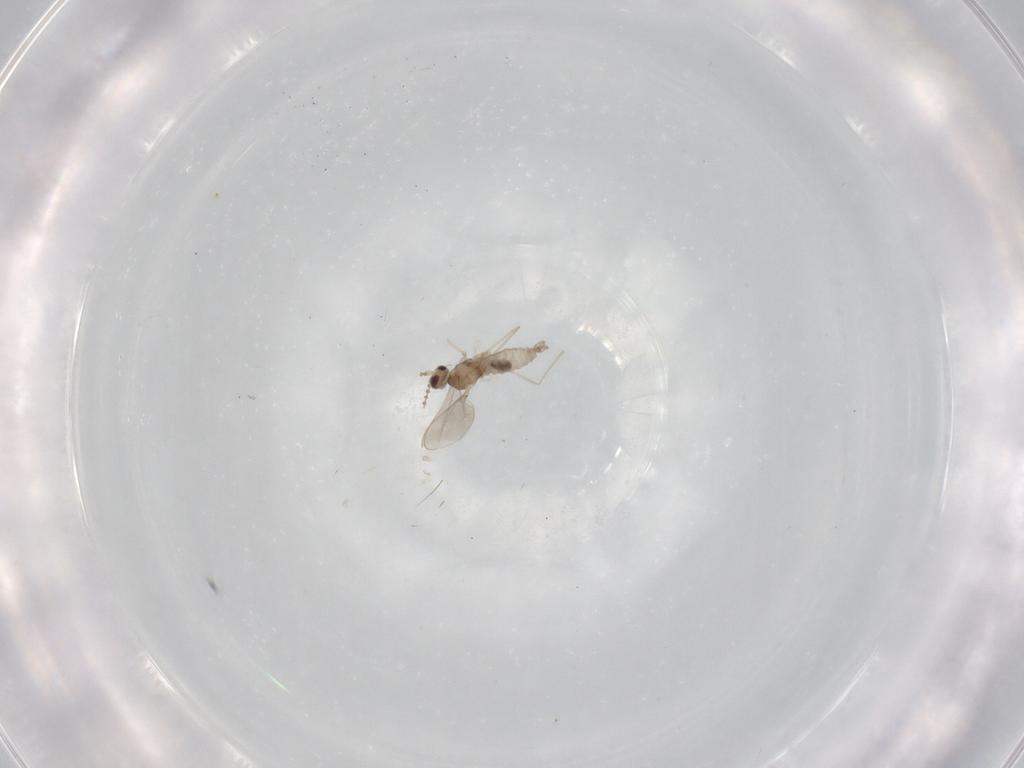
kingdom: Animalia
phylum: Arthropoda
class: Insecta
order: Diptera
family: Cecidomyiidae
